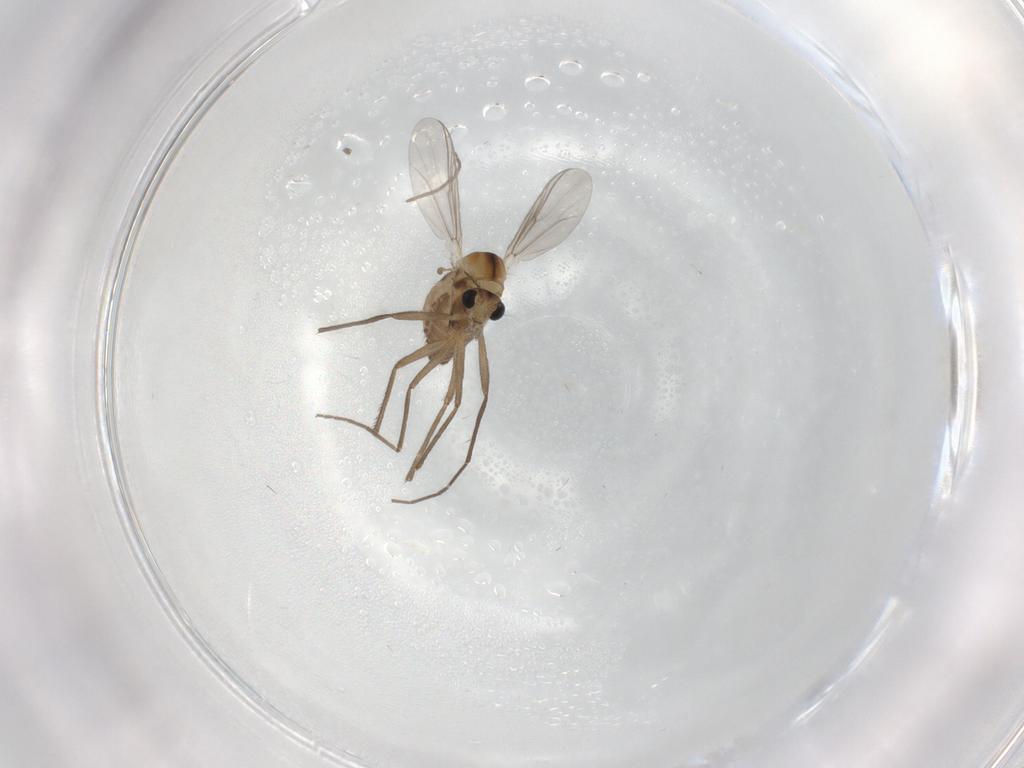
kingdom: Animalia
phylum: Arthropoda
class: Insecta
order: Diptera
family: Chironomidae
